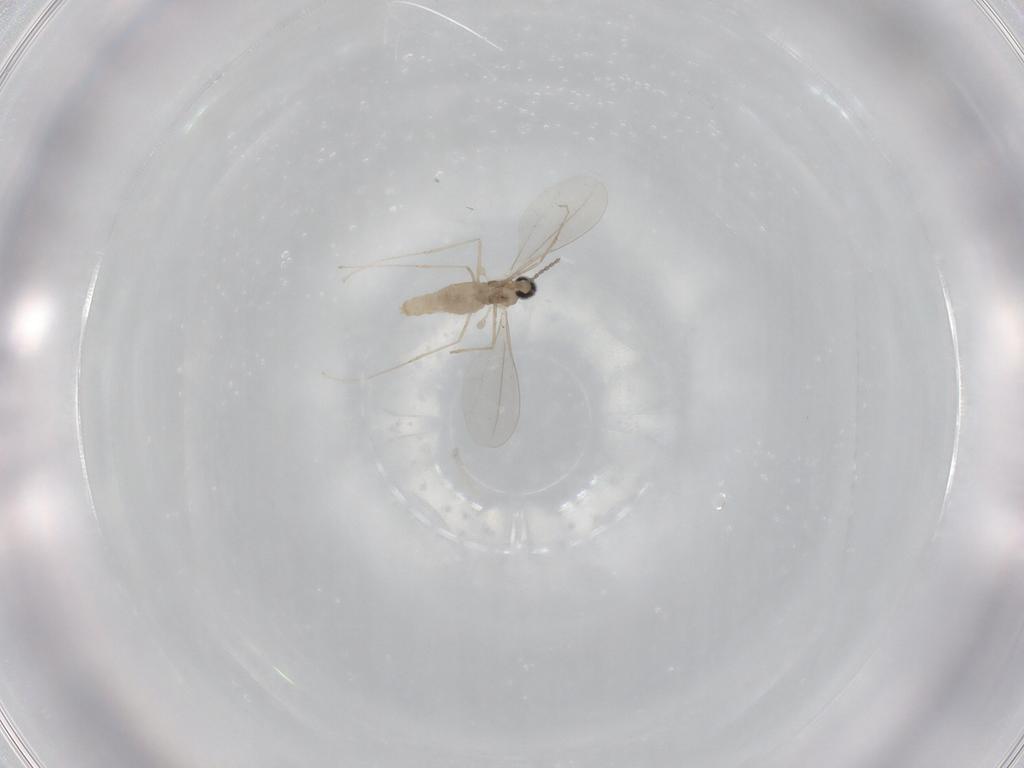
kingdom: Animalia
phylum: Arthropoda
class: Insecta
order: Diptera
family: Cecidomyiidae
